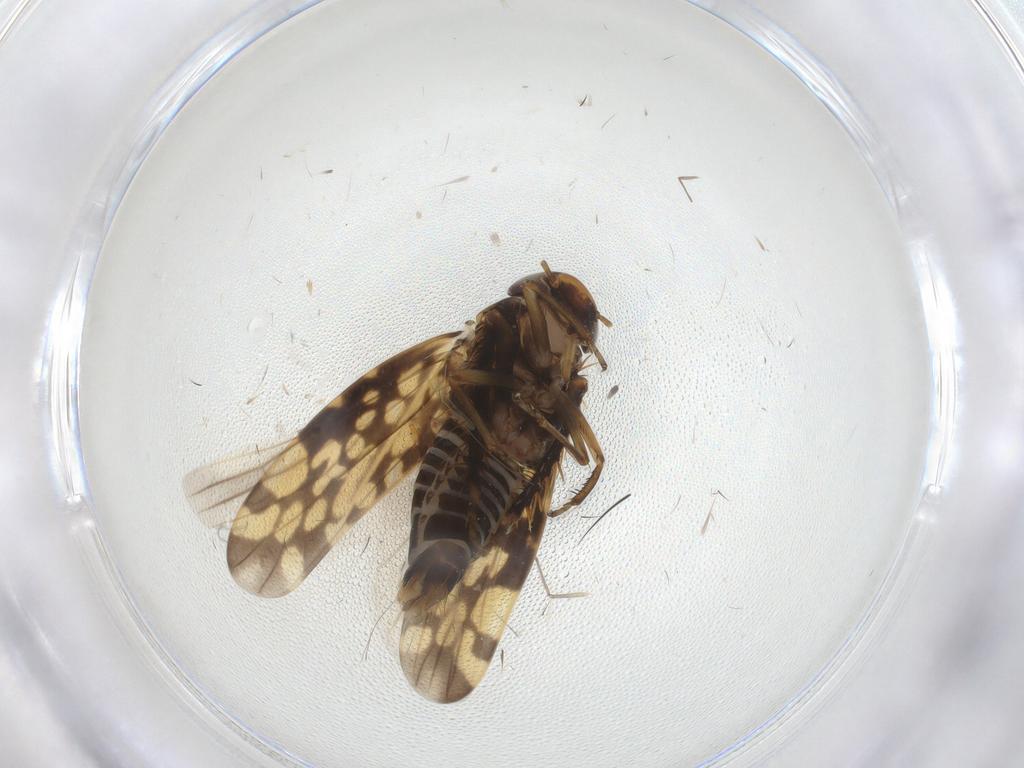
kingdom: Animalia
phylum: Arthropoda
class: Insecta
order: Hemiptera
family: Cicadellidae
